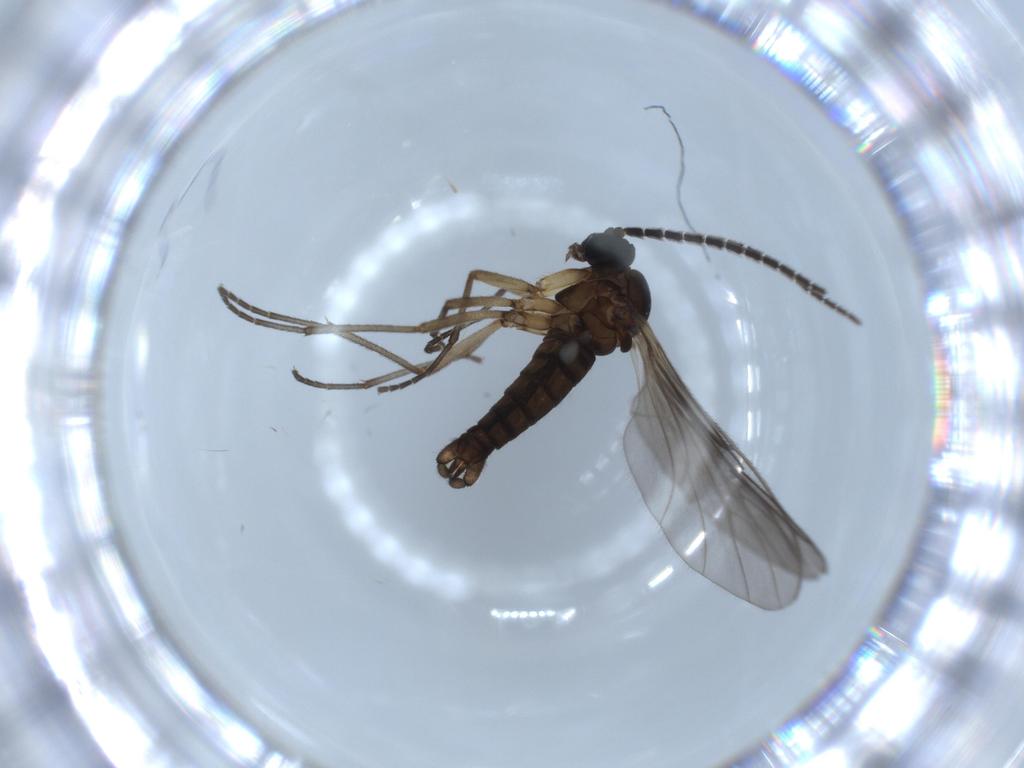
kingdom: Animalia
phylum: Arthropoda
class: Insecta
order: Diptera
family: Sciaridae
